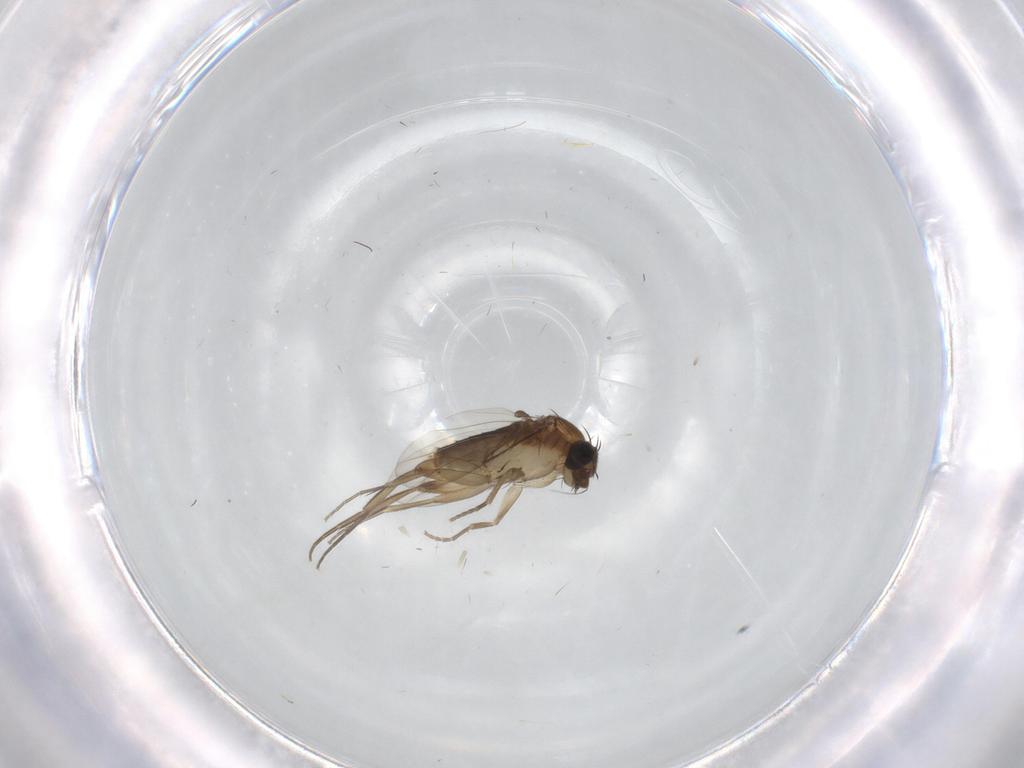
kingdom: Animalia
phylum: Arthropoda
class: Insecta
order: Diptera
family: Phoridae
